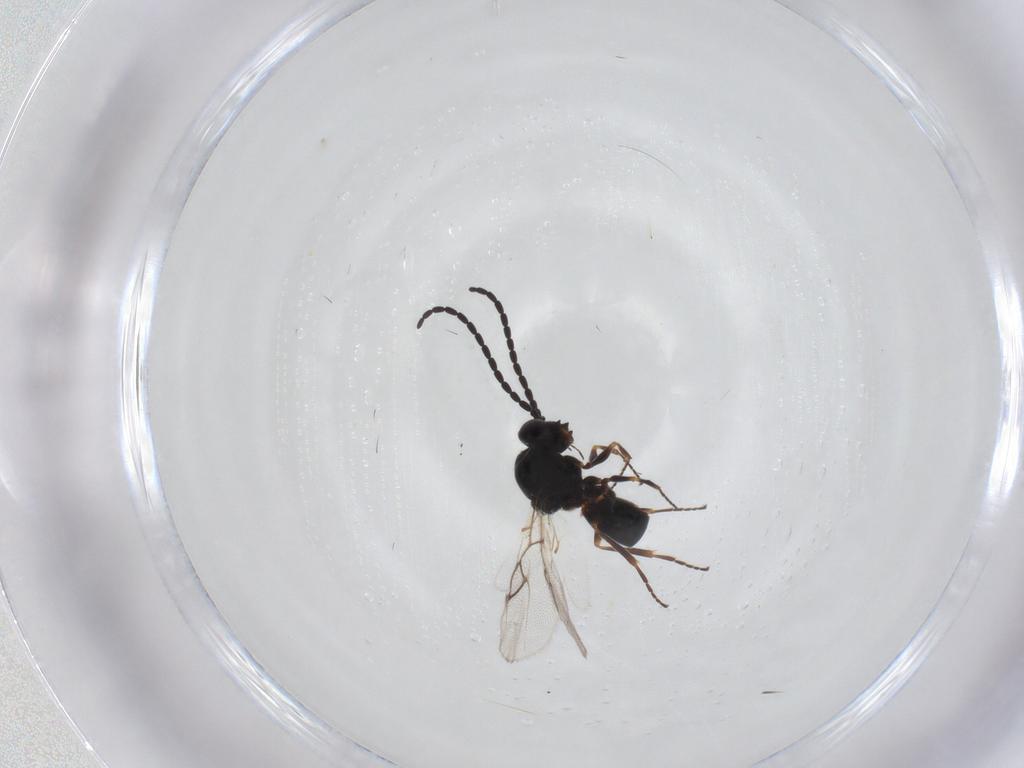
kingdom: Animalia
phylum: Arthropoda
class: Insecta
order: Hymenoptera
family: Figitidae
